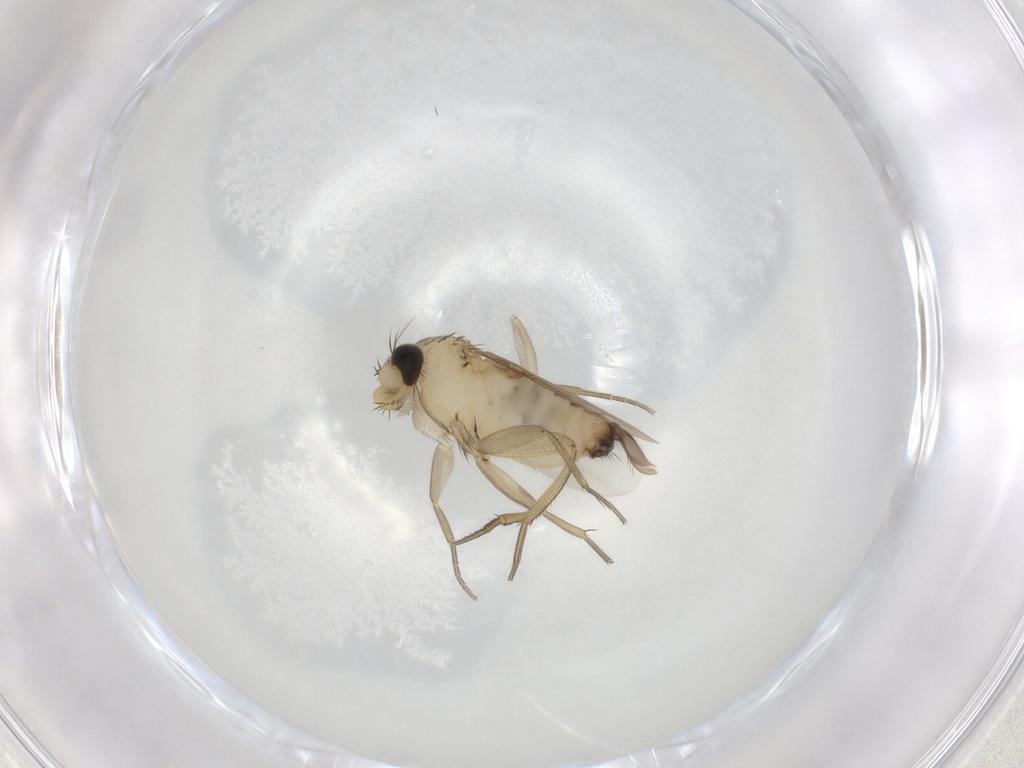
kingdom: Animalia
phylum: Arthropoda
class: Insecta
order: Diptera
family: Phoridae
